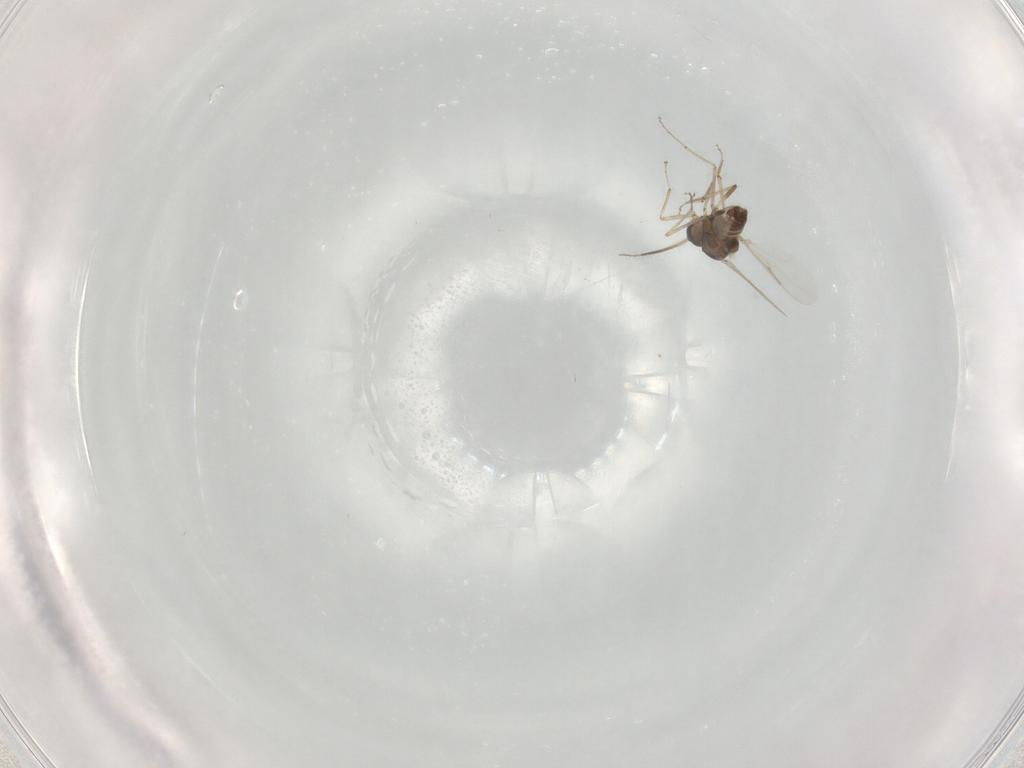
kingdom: Animalia
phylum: Arthropoda
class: Insecta
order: Diptera
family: Ceratopogonidae
